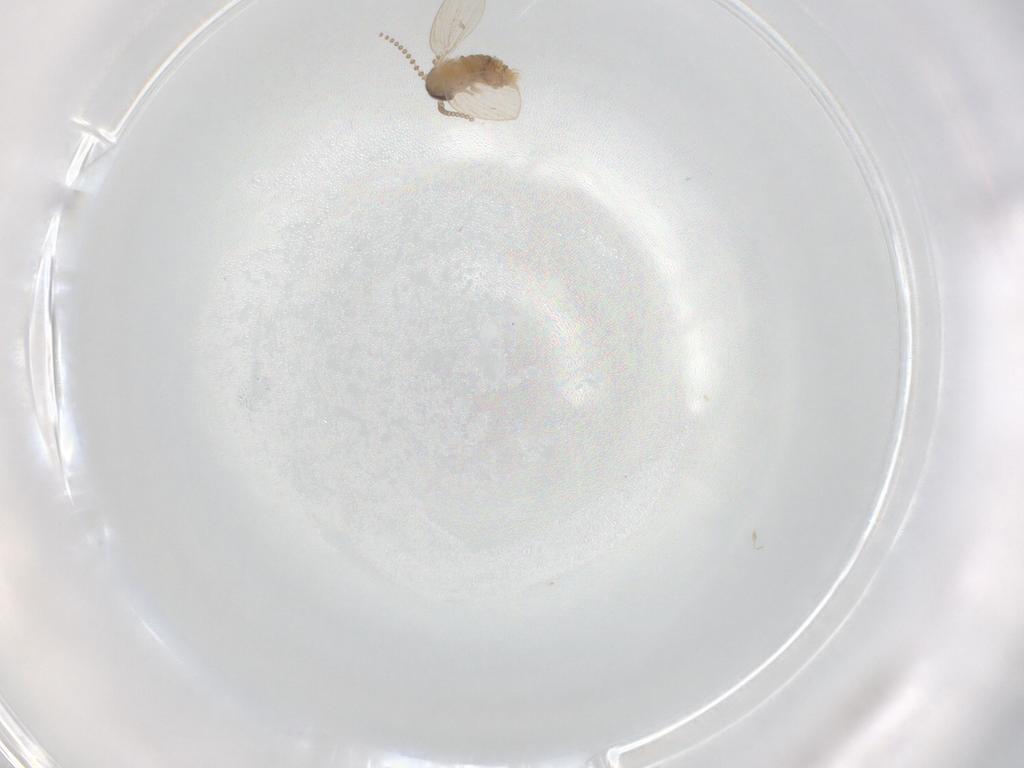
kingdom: Animalia
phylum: Arthropoda
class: Insecta
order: Diptera
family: Psychodidae
